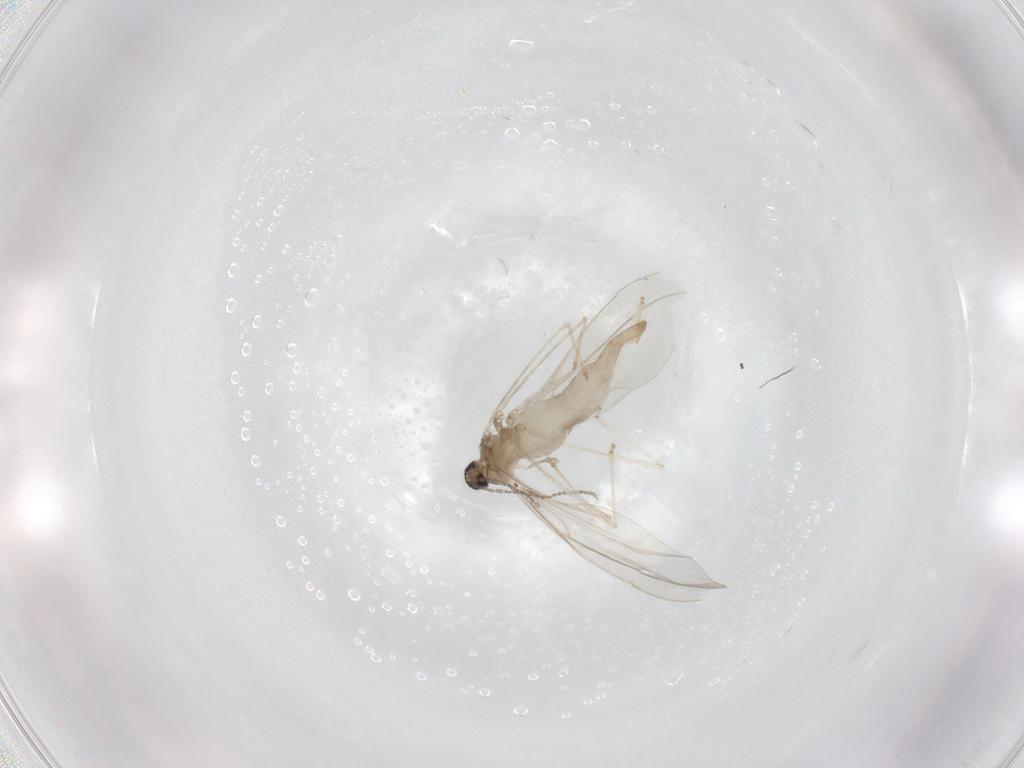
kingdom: Animalia
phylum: Arthropoda
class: Insecta
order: Diptera
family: Cecidomyiidae
